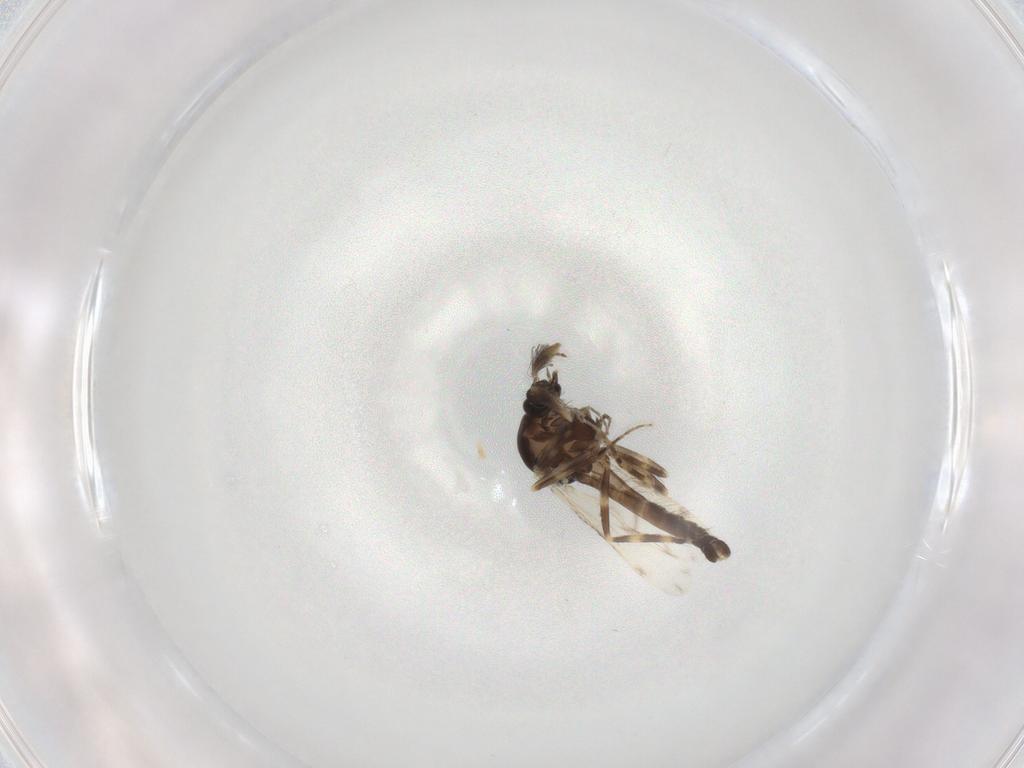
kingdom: Animalia
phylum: Arthropoda
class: Insecta
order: Diptera
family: Ceratopogonidae
